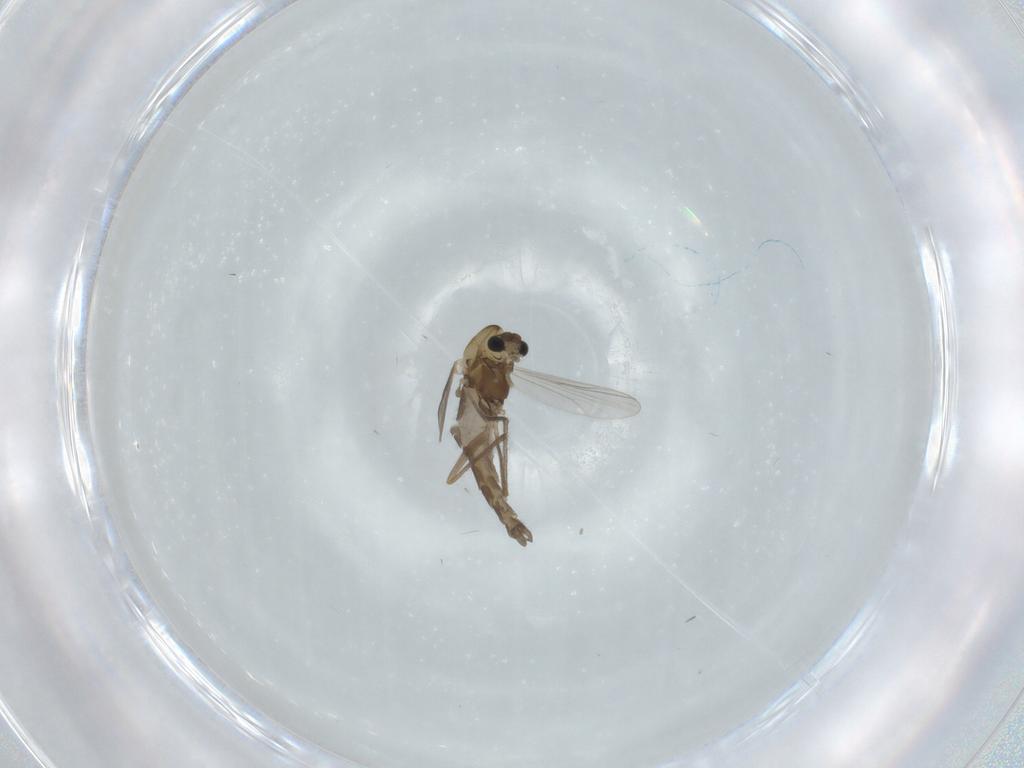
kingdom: Animalia
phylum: Arthropoda
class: Insecta
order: Diptera
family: Chironomidae
